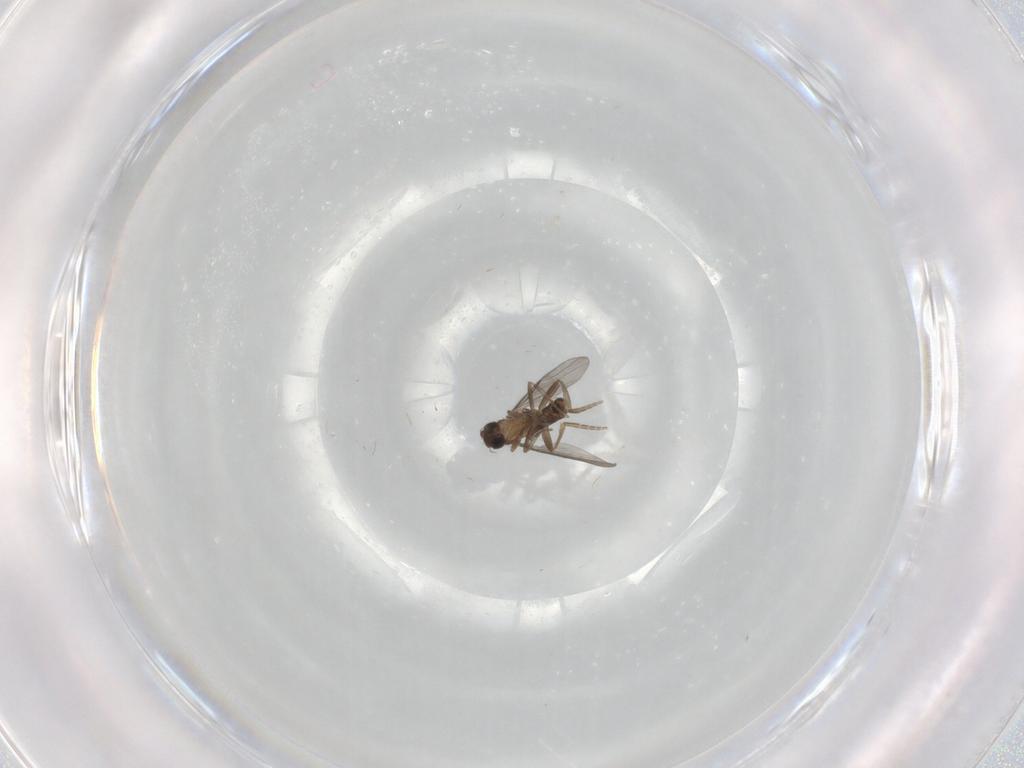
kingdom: Animalia
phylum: Arthropoda
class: Insecta
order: Diptera
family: Cecidomyiidae
